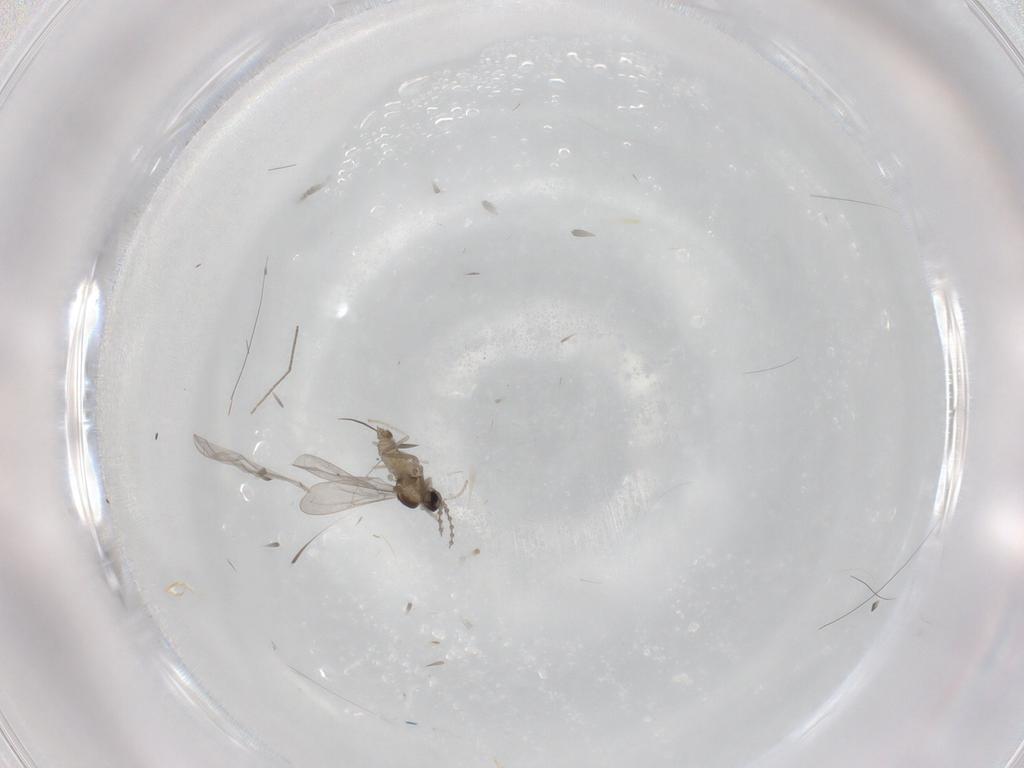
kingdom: Animalia
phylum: Arthropoda
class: Insecta
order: Diptera
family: Cecidomyiidae
